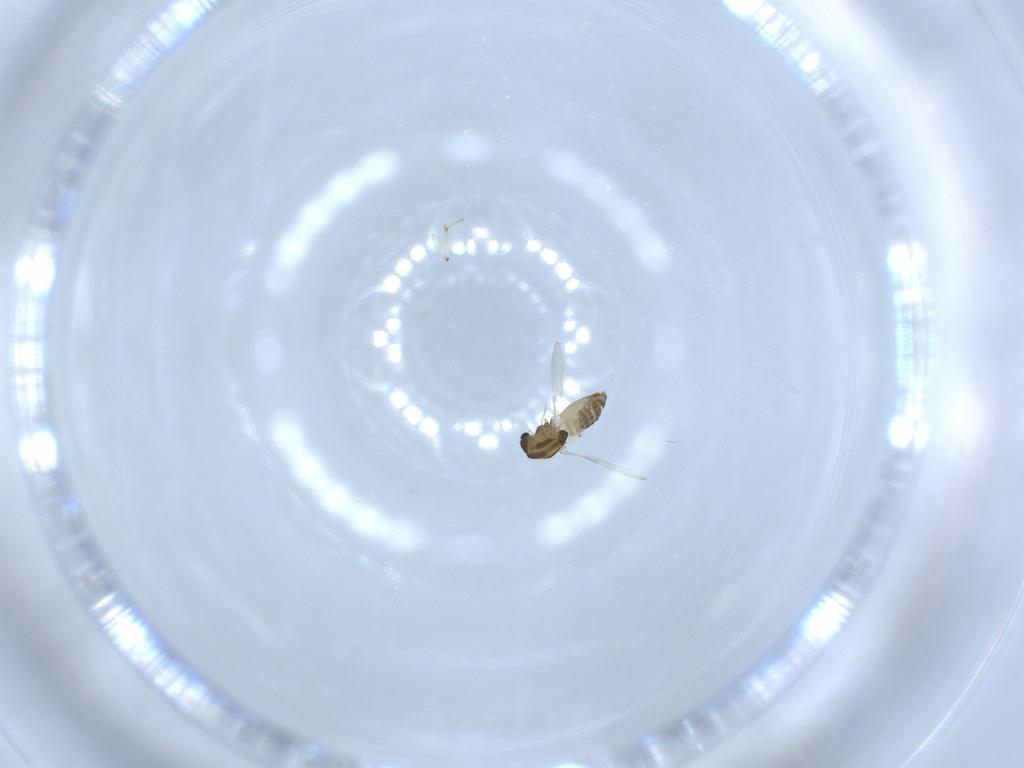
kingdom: Animalia
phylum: Arthropoda
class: Insecta
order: Diptera
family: Chironomidae
